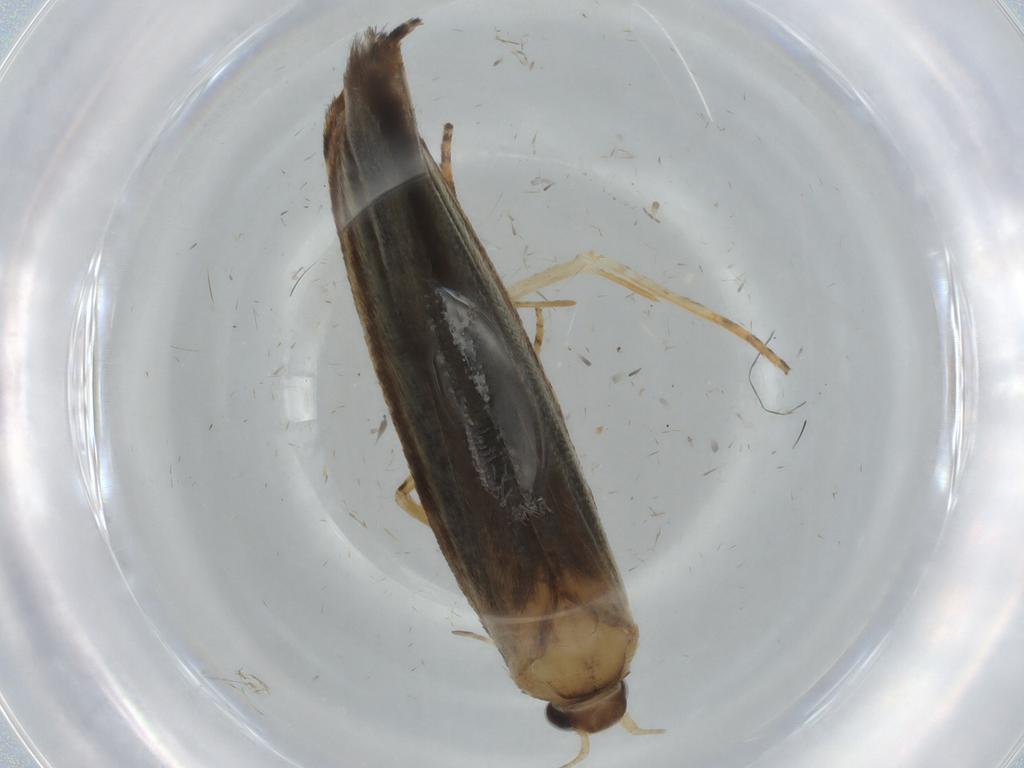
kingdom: Animalia
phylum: Arthropoda
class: Insecta
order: Lepidoptera
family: Gelechiidae
